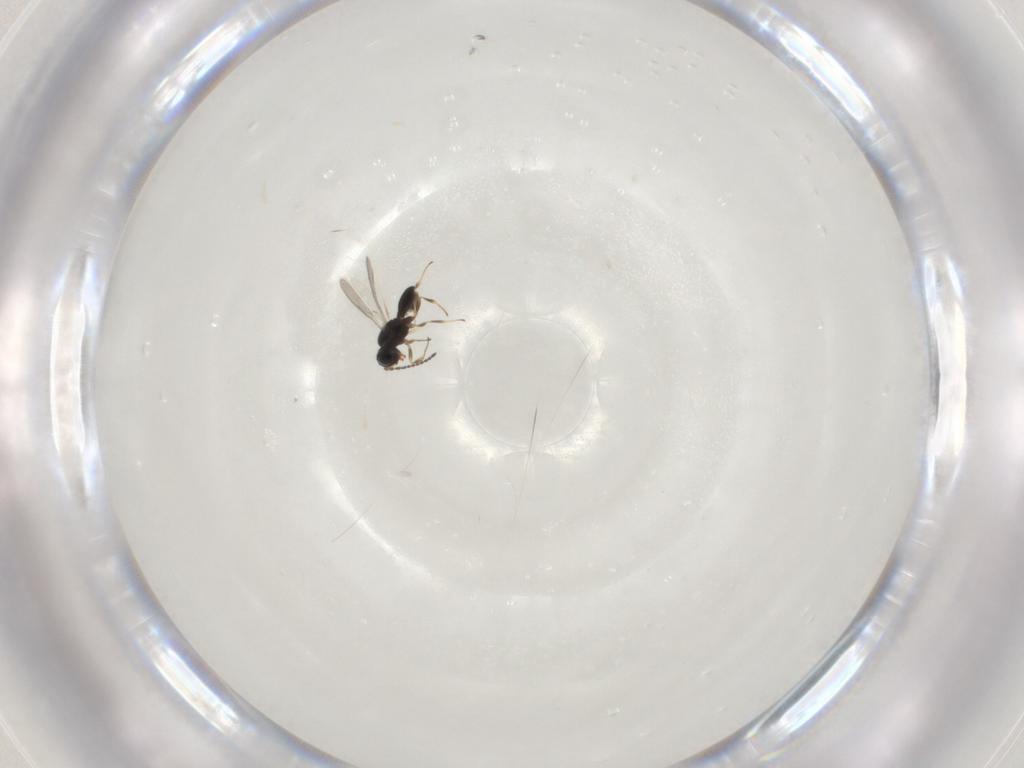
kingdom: Animalia
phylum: Arthropoda
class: Insecta
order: Hymenoptera
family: Scelionidae
